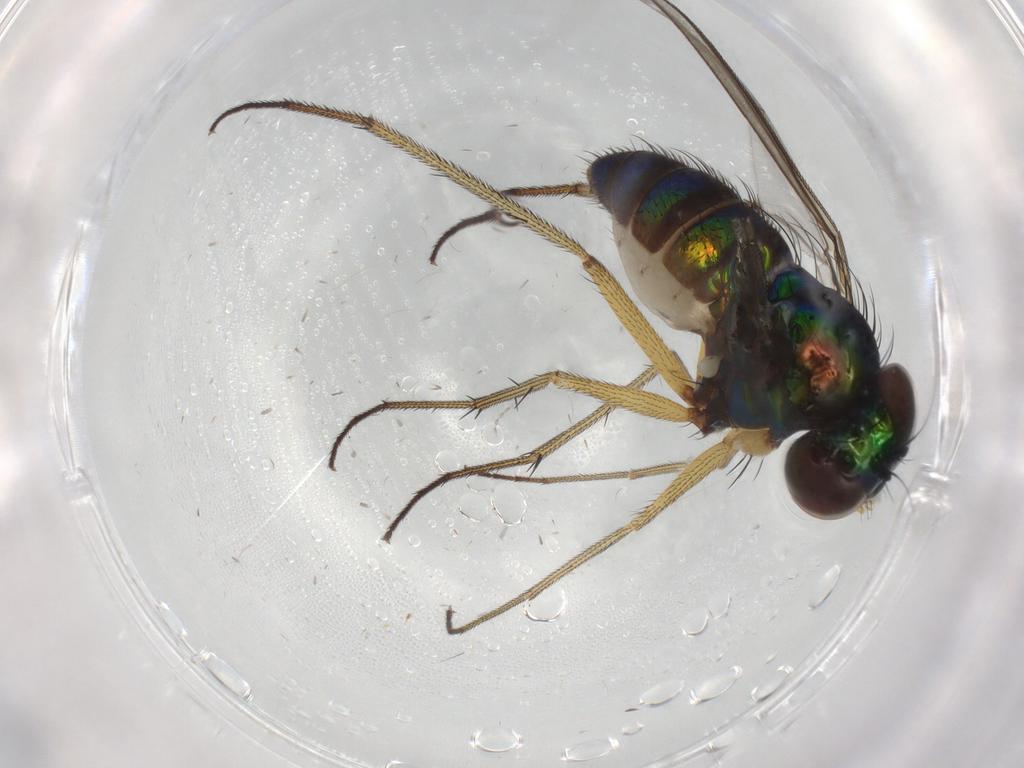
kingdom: Animalia
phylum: Arthropoda
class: Insecta
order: Diptera
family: Dolichopodidae
